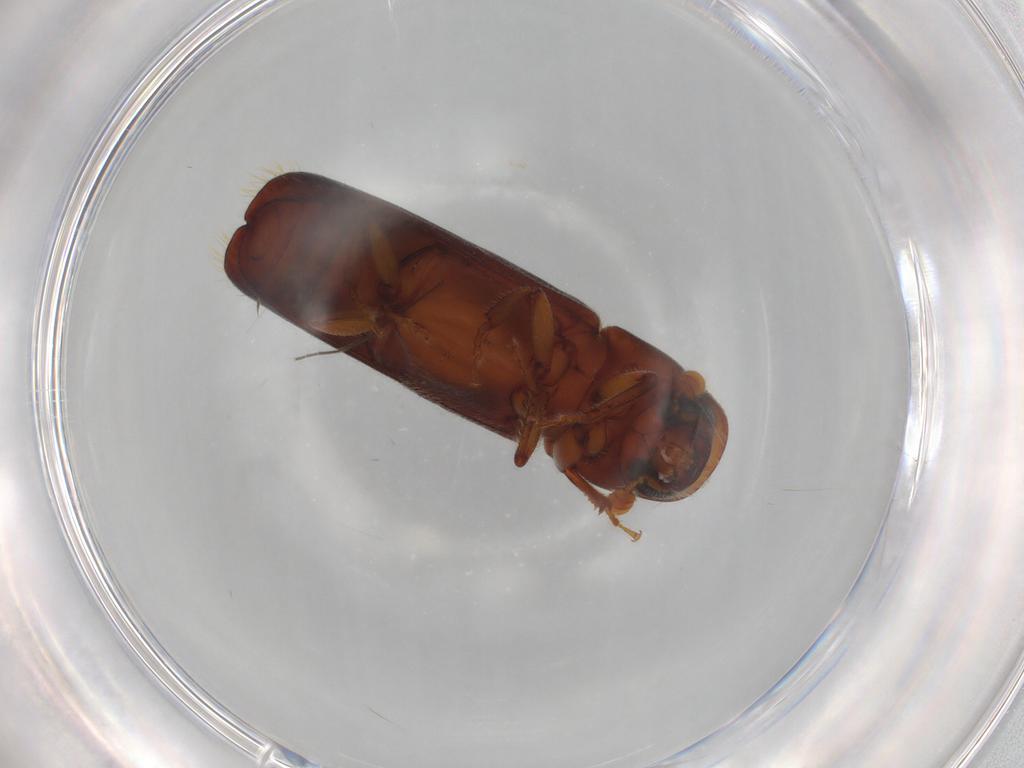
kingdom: Animalia
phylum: Arthropoda
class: Insecta
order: Coleoptera
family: Curculionidae
